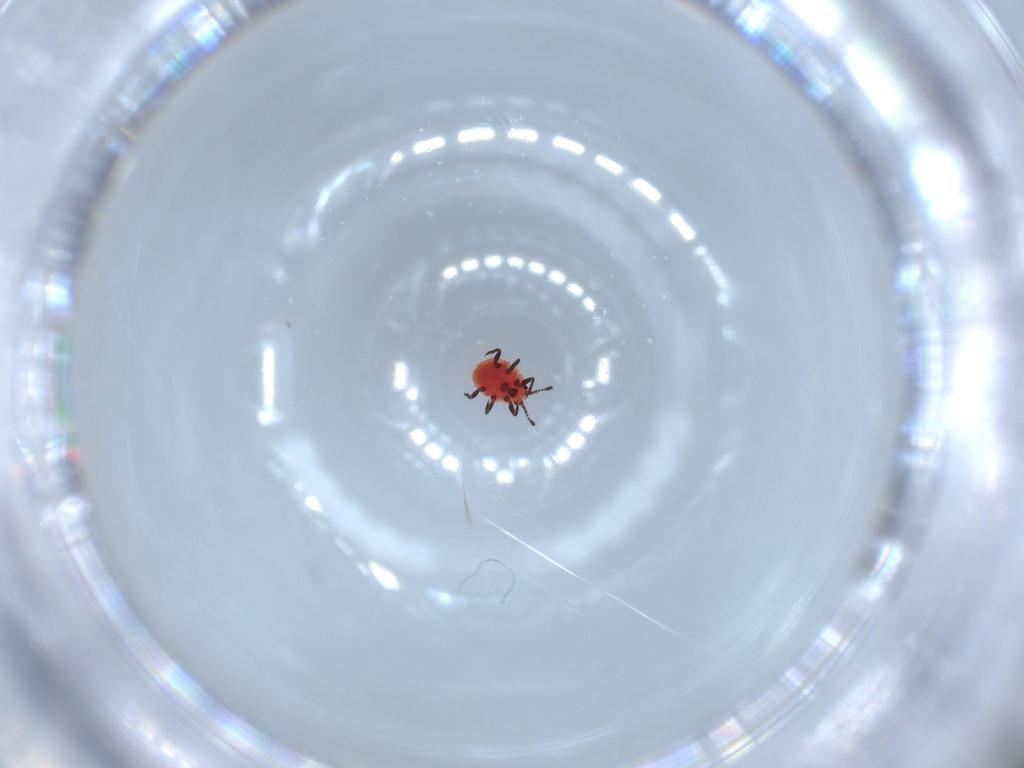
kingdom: Animalia
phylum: Arthropoda
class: Insecta
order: Hemiptera
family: Monophlebidae
